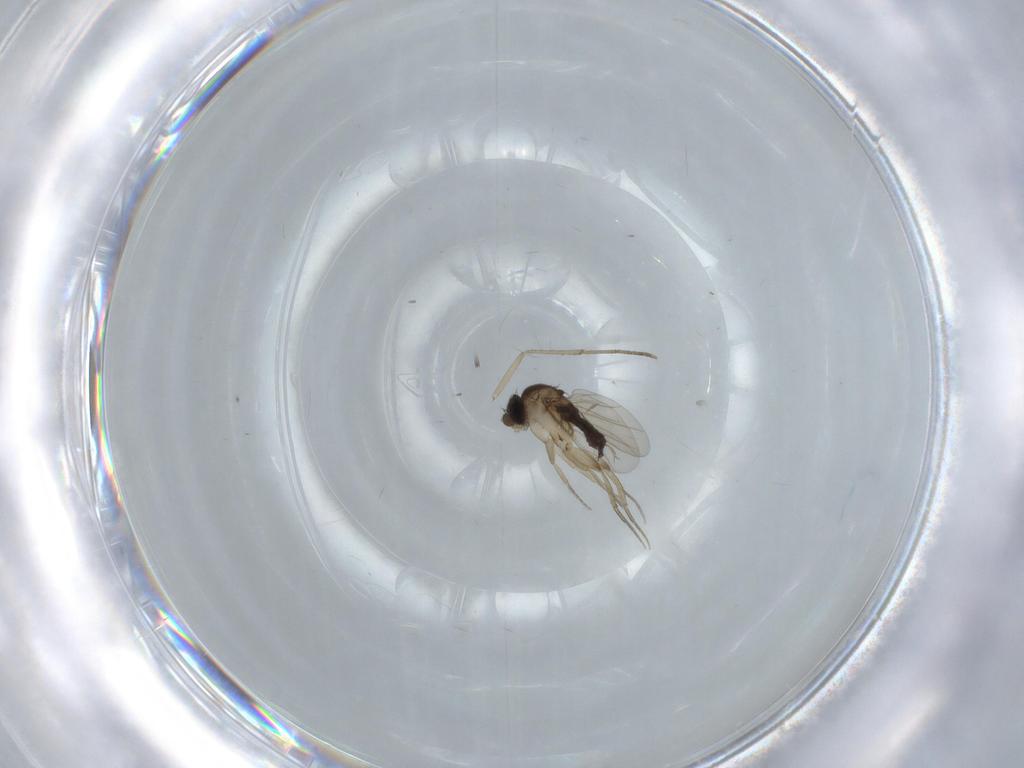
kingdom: Animalia
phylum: Arthropoda
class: Insecta
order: Diptera
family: Phoridae
